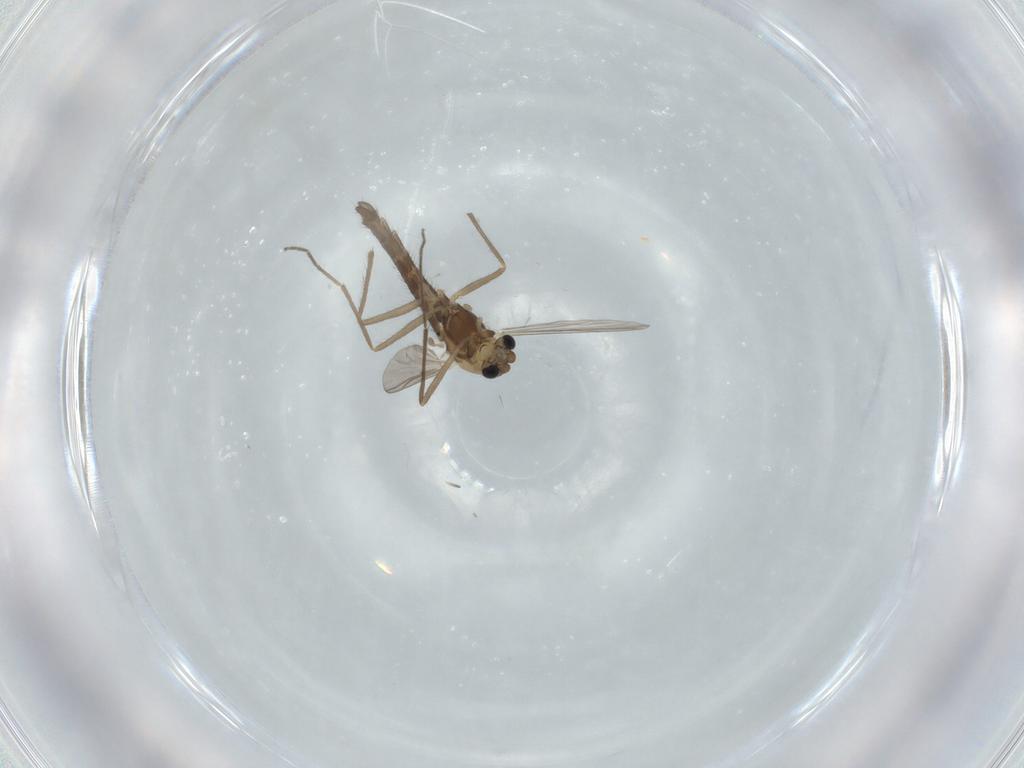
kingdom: Animalia
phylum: Arthropoda
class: Insecta
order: Diptera
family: Chironomidae
